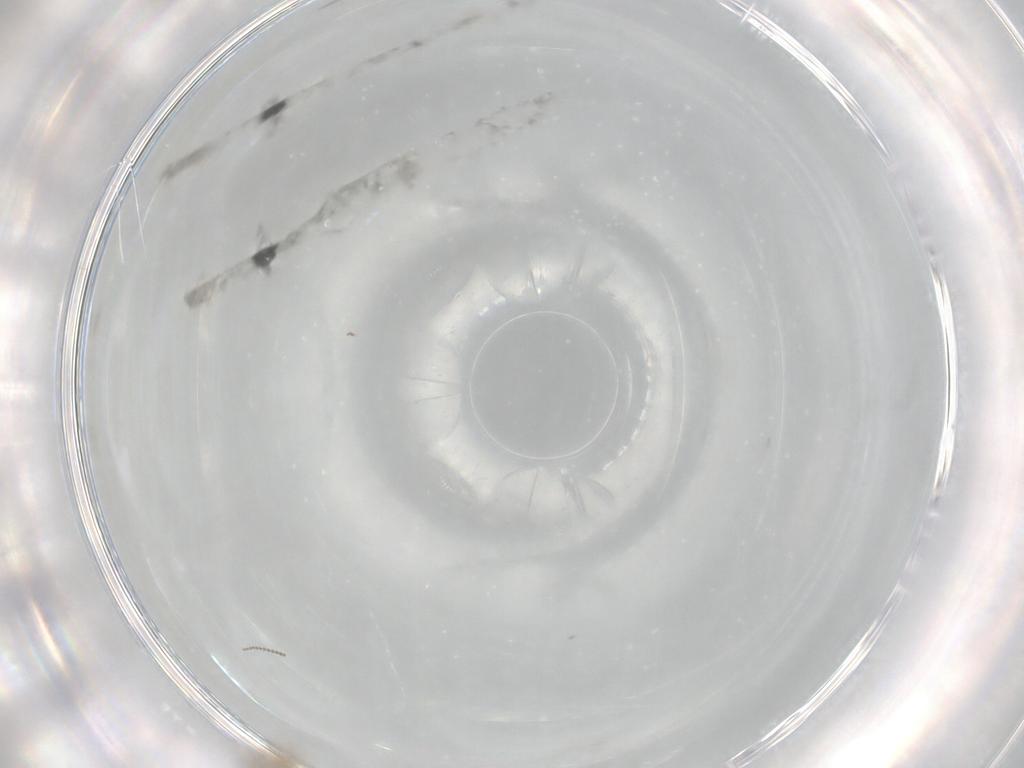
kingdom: Animalia
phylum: Arthropoda
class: Insecta
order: Diptera
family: Cecidomyiidae
